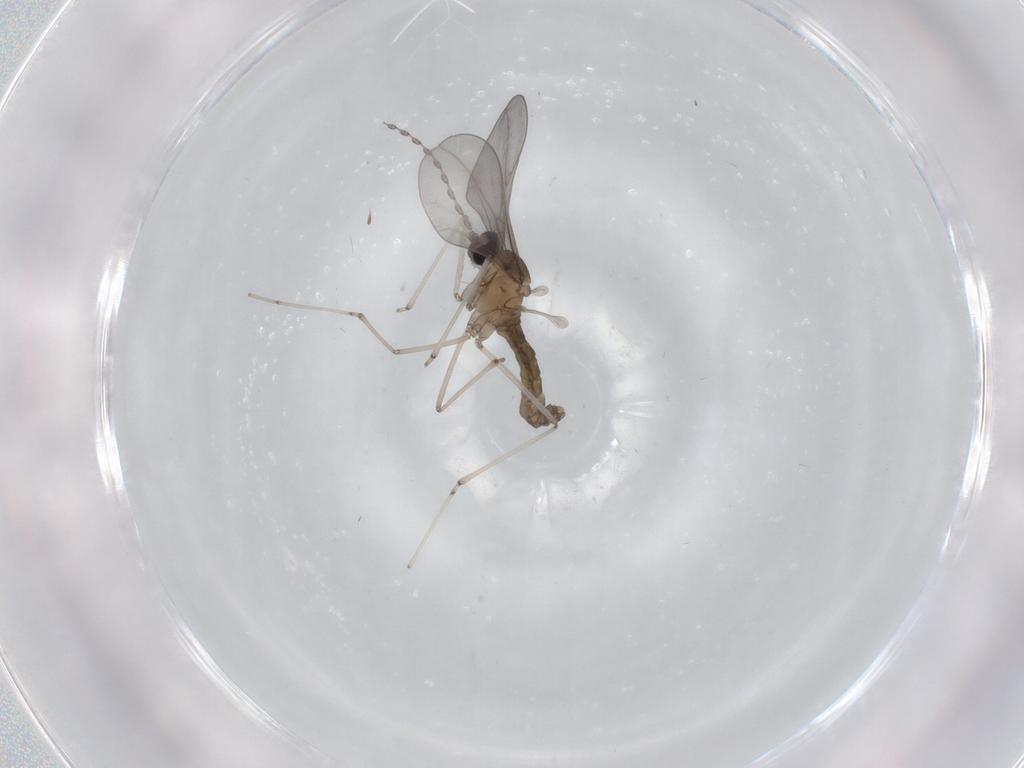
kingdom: Animalia
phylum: Arthropoda
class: Insecta
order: Diptera
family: Cecidomyiidae
